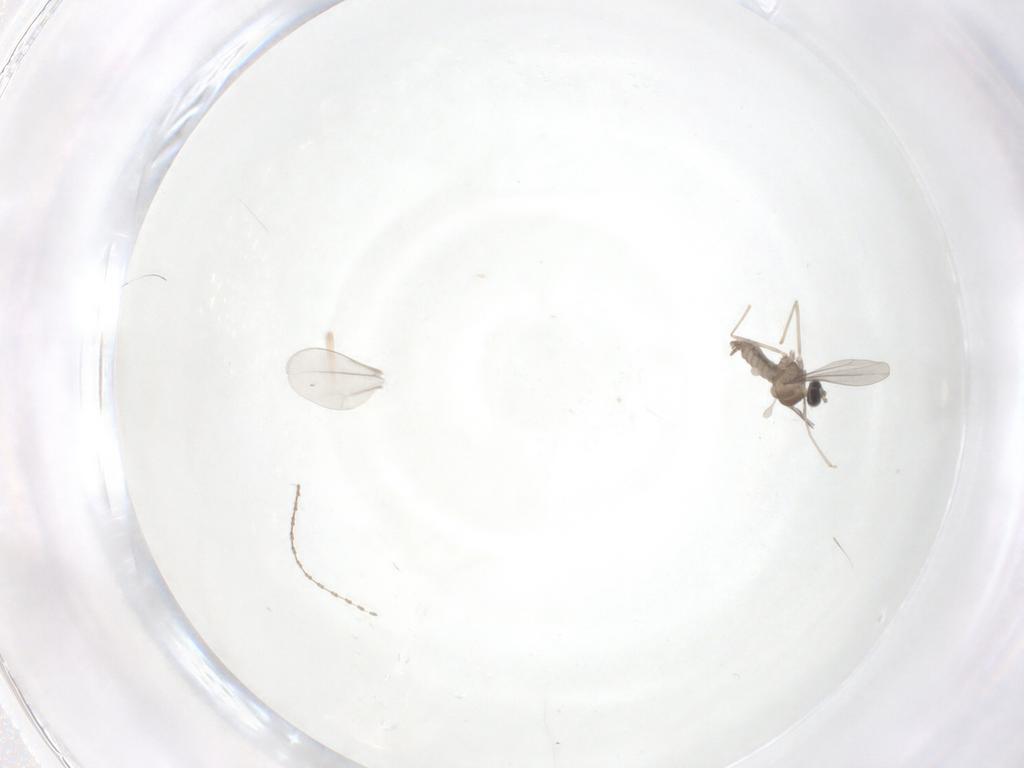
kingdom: Animalia
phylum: Arthropoda
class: Insecta
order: Diptera
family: Cecidomyiidae
